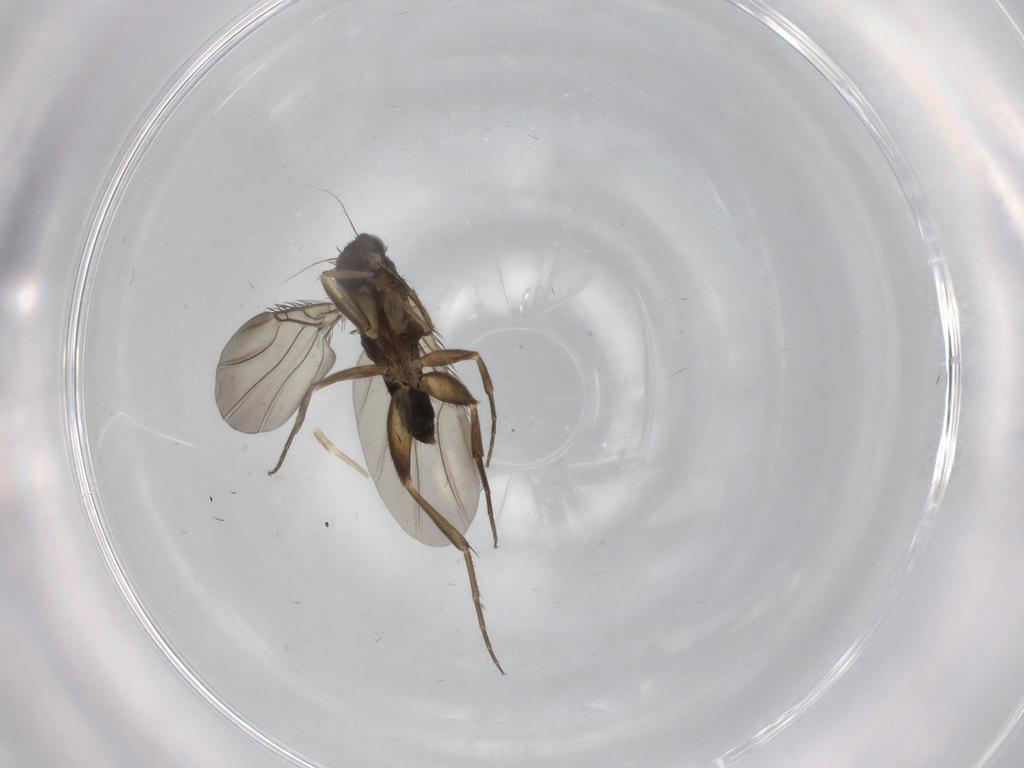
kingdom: Animalia
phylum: Arthropoda
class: Insecta
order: Diptera
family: Phoridae
